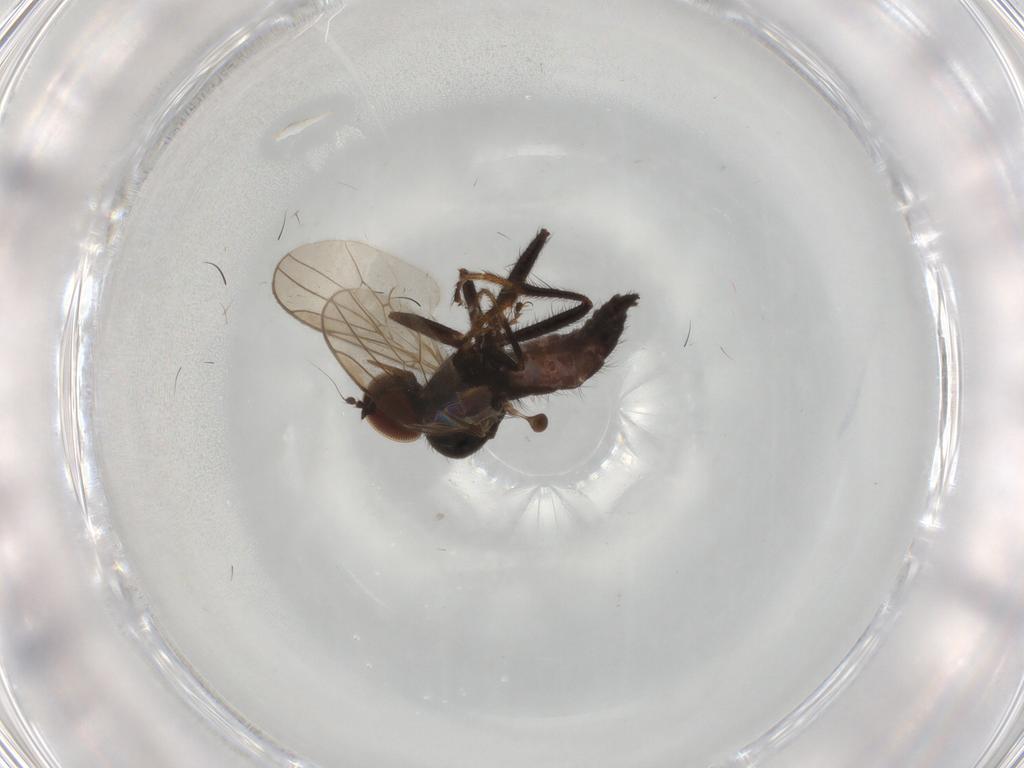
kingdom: Animalia
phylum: Arthropoda
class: Insecta
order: Diptera
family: Hybotidae
